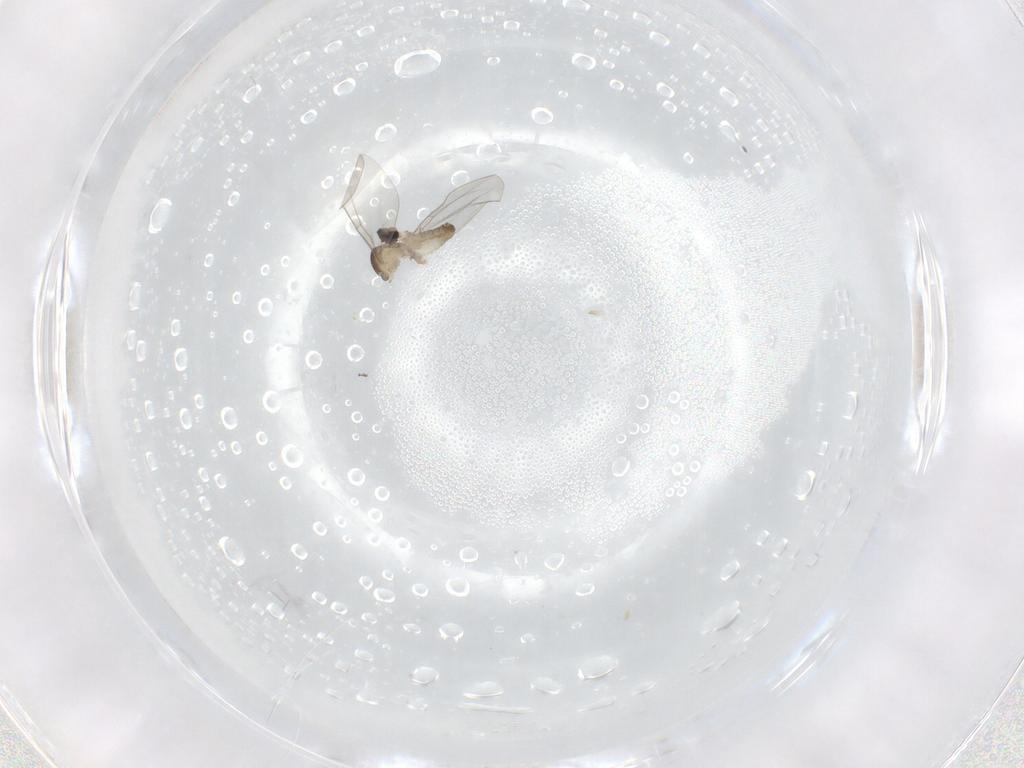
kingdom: Animalia
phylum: Arthropoda
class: Insecta
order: Diptera
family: Cecidomyiidae
